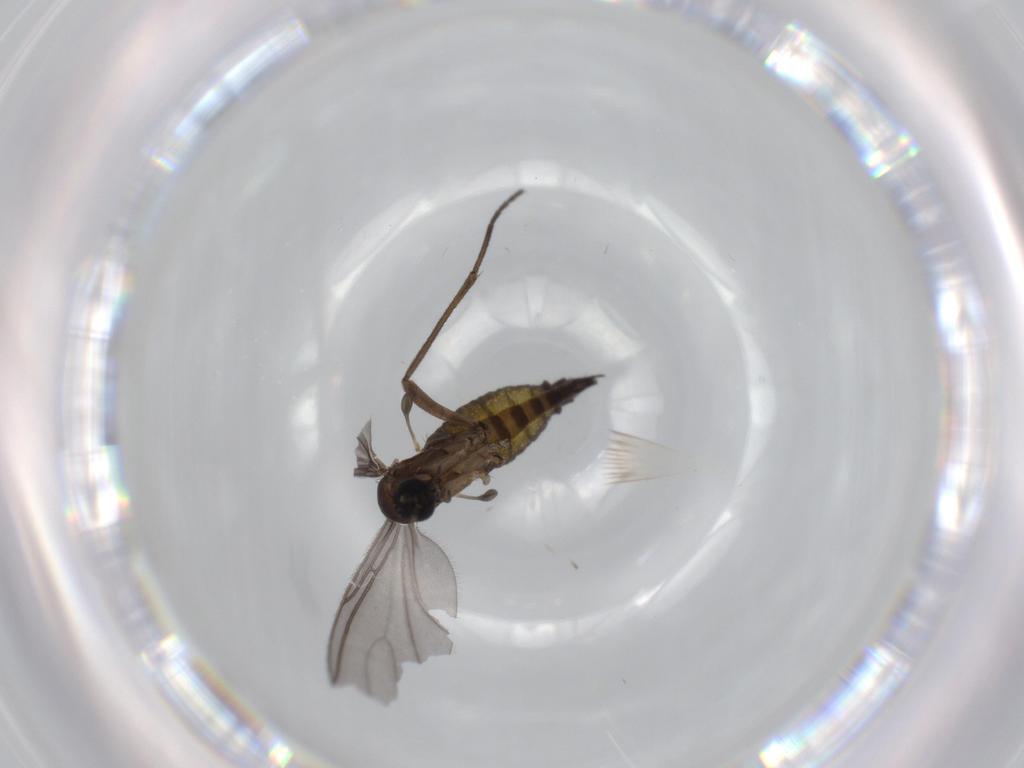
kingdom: Animalia
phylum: Arthropoda
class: Insecta
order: Diptera
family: Sciaridae
